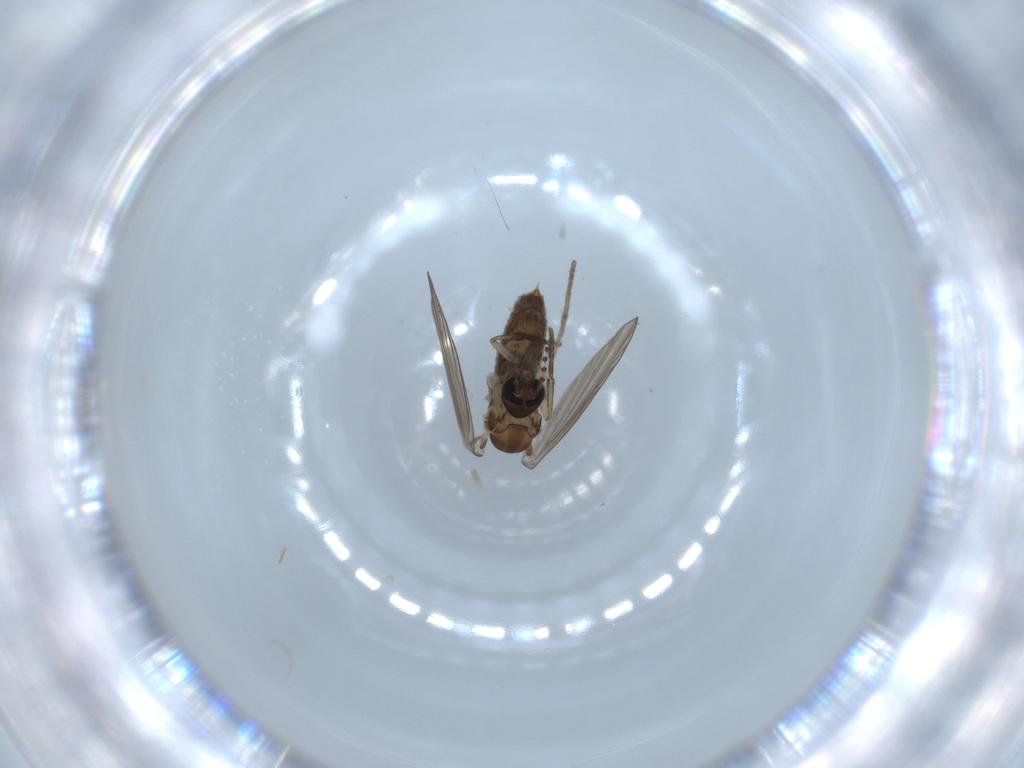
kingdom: Animalia
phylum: Arthropoda
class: Insecta
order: Diptera
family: Psychodidae
